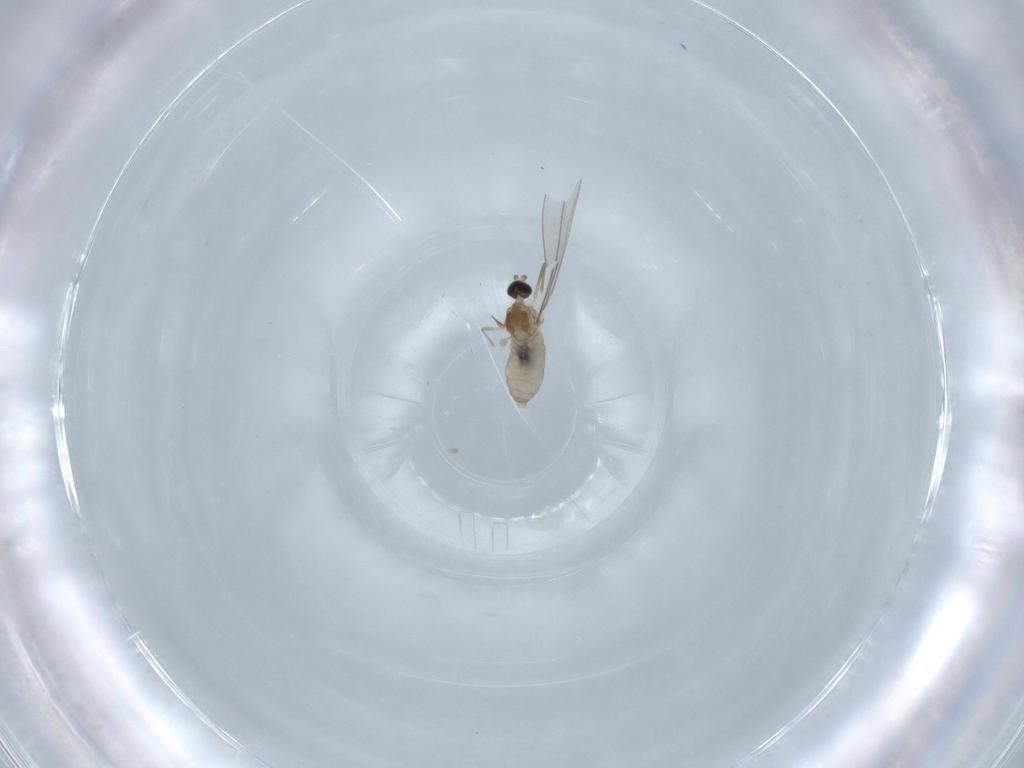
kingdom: Animalia
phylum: Arthropoda
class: Insecta
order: Diptera
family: Cecidomyiidae
